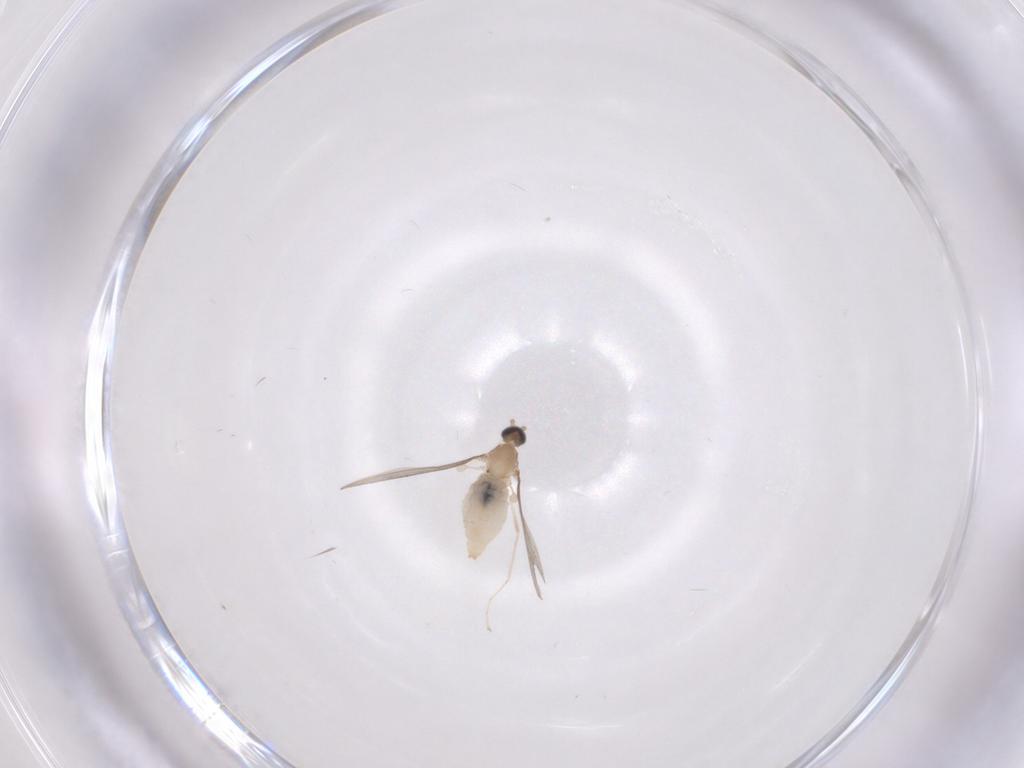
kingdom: Animalia
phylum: Arthropoda
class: Insecta
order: Diptera
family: Cecidomyiidae
